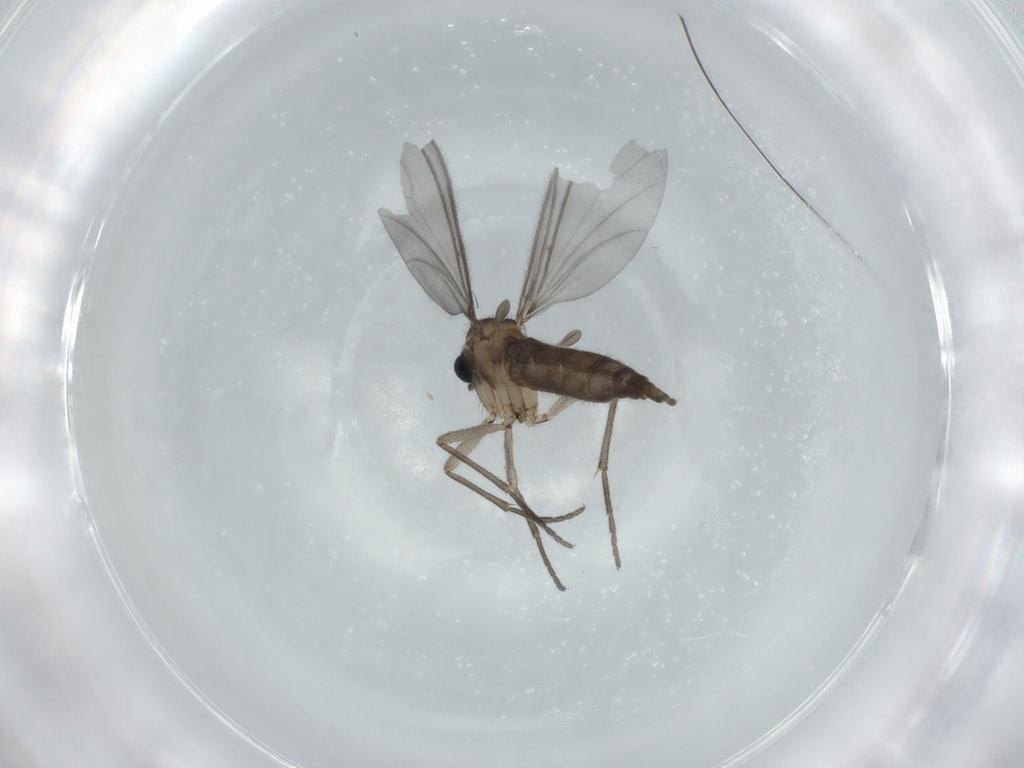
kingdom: Animalia
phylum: Arthropoda
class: Insecta
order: Diptera
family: Sciaridae
